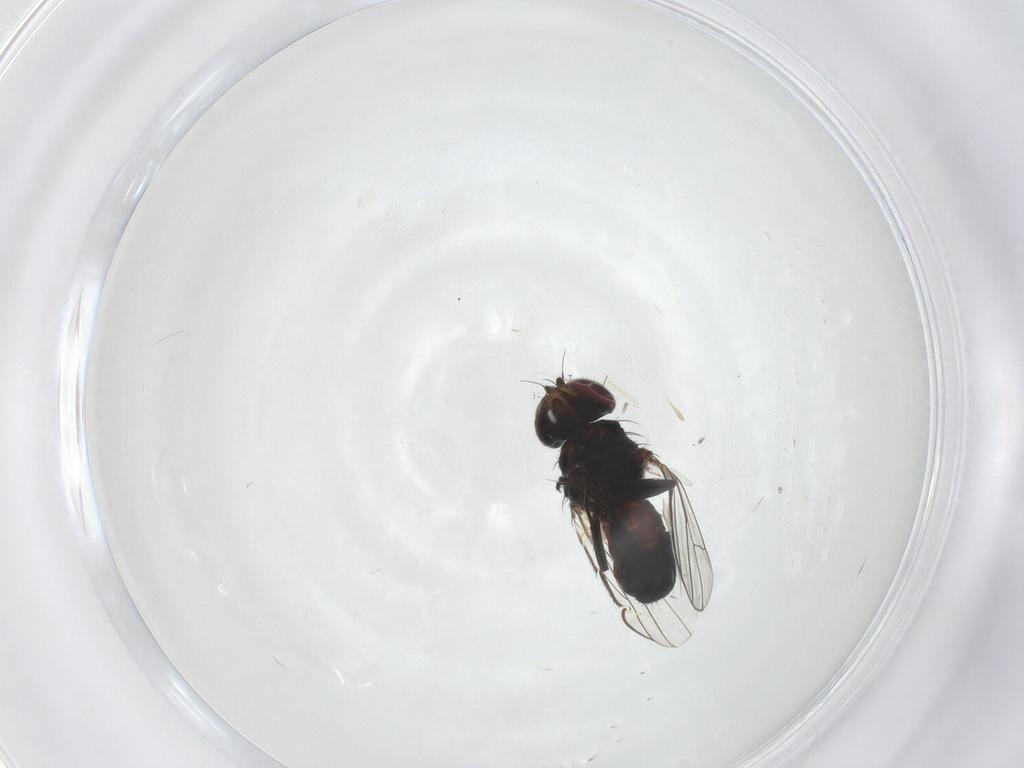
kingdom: Animalia
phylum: Arthropoda
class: Insecta
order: Diptera
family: Carnidae
